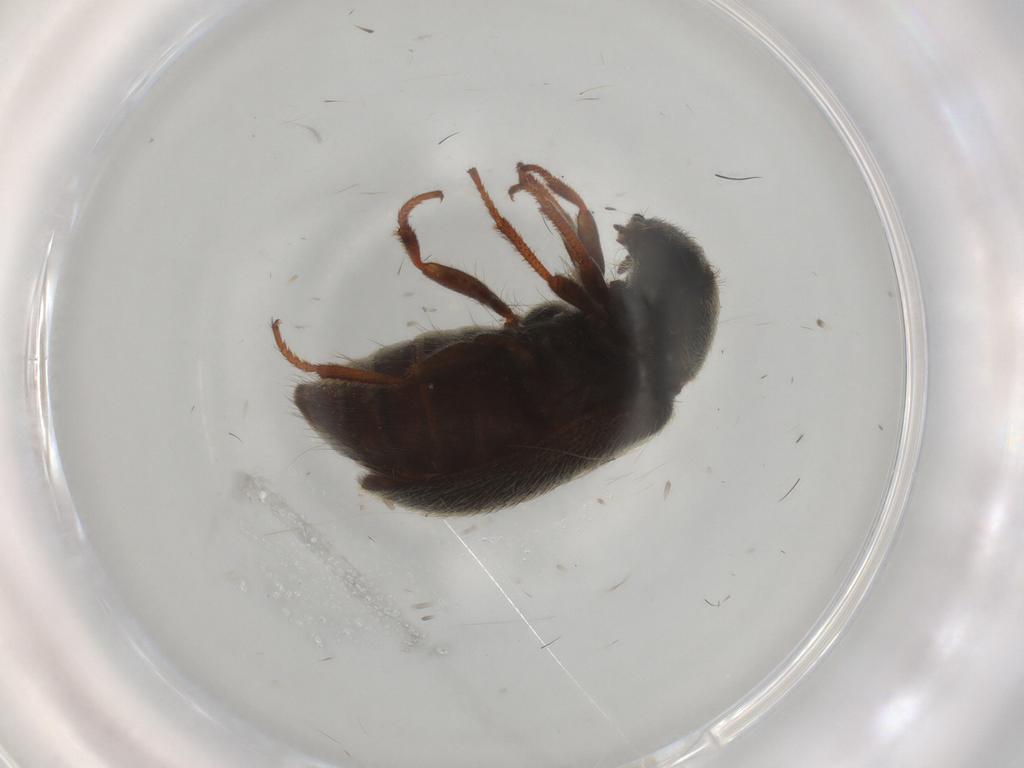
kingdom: Animalia
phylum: Arthropoda
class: Insecta
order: Coleoptera
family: Melyridae
